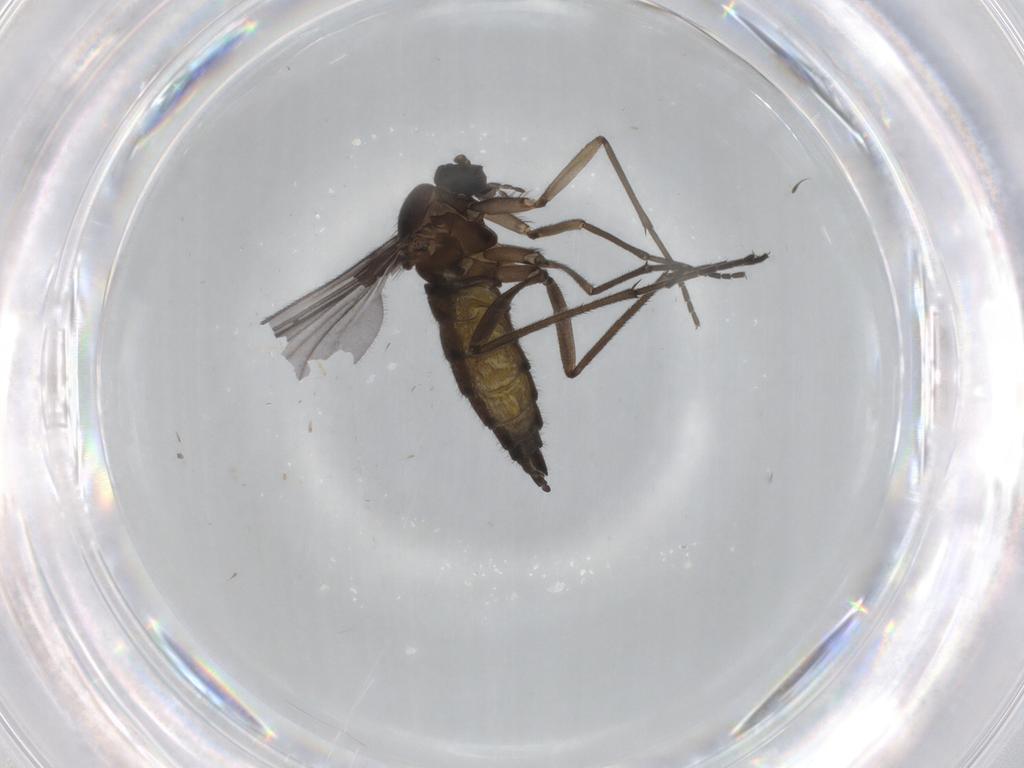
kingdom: Animalia
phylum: Arthropoda
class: Insecta
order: Diptera
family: Sciaridae
